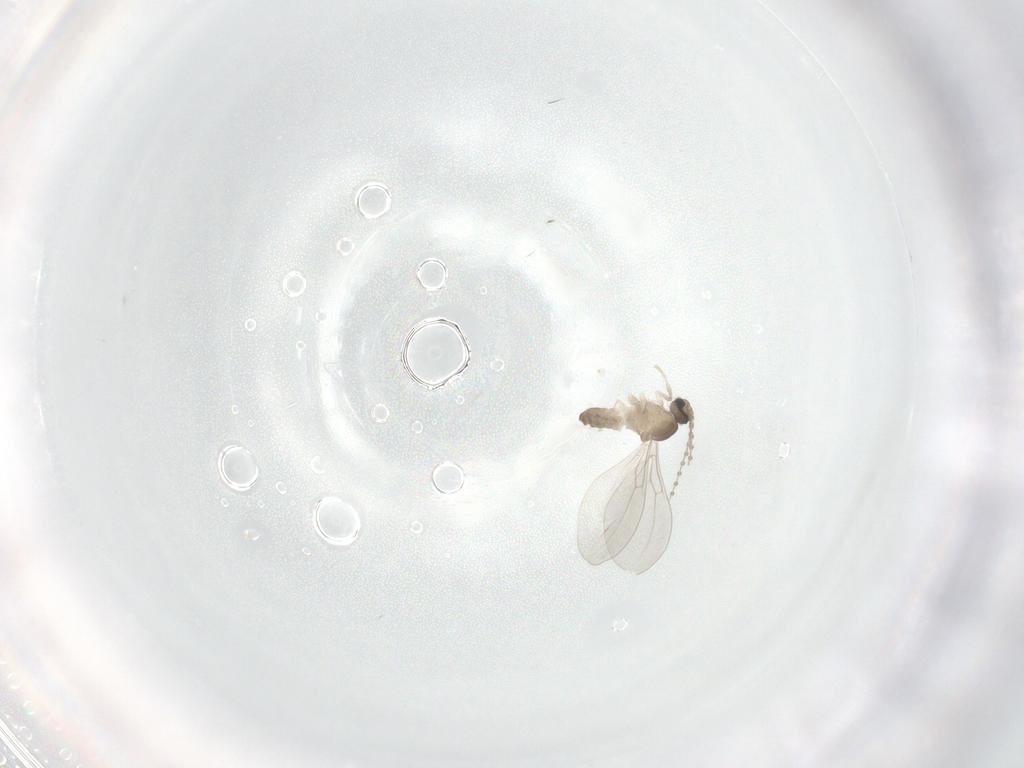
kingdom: Animalia
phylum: Arthropoda
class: Insecta
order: Diptera
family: Cecidomyiidae
